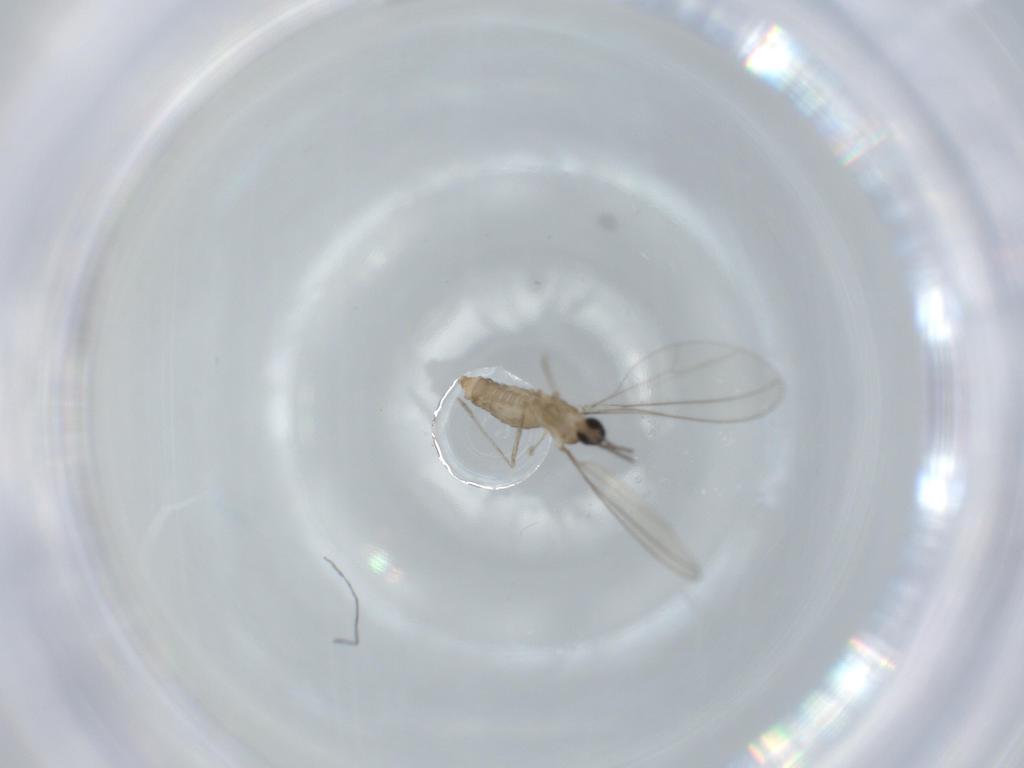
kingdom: Animalia
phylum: Arthropoda
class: Insecta
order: Diptera
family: Cecidomyiidae
